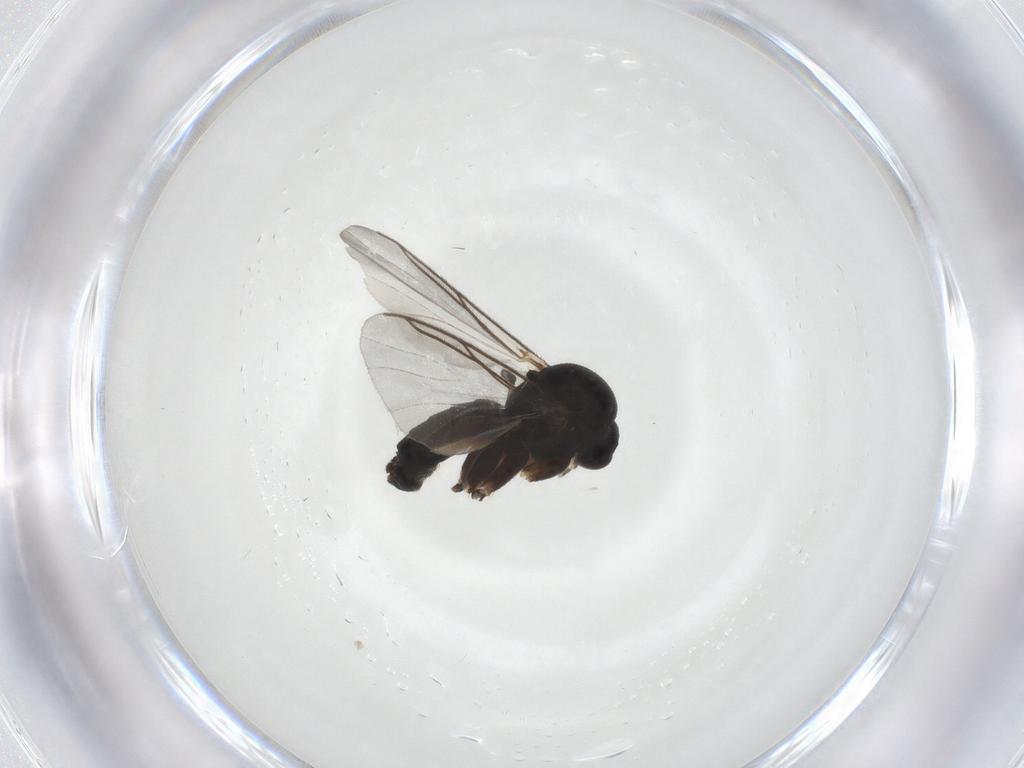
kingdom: Animalia
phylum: Arthropoda
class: Insecta
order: Diptera
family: Mycetophilidae
